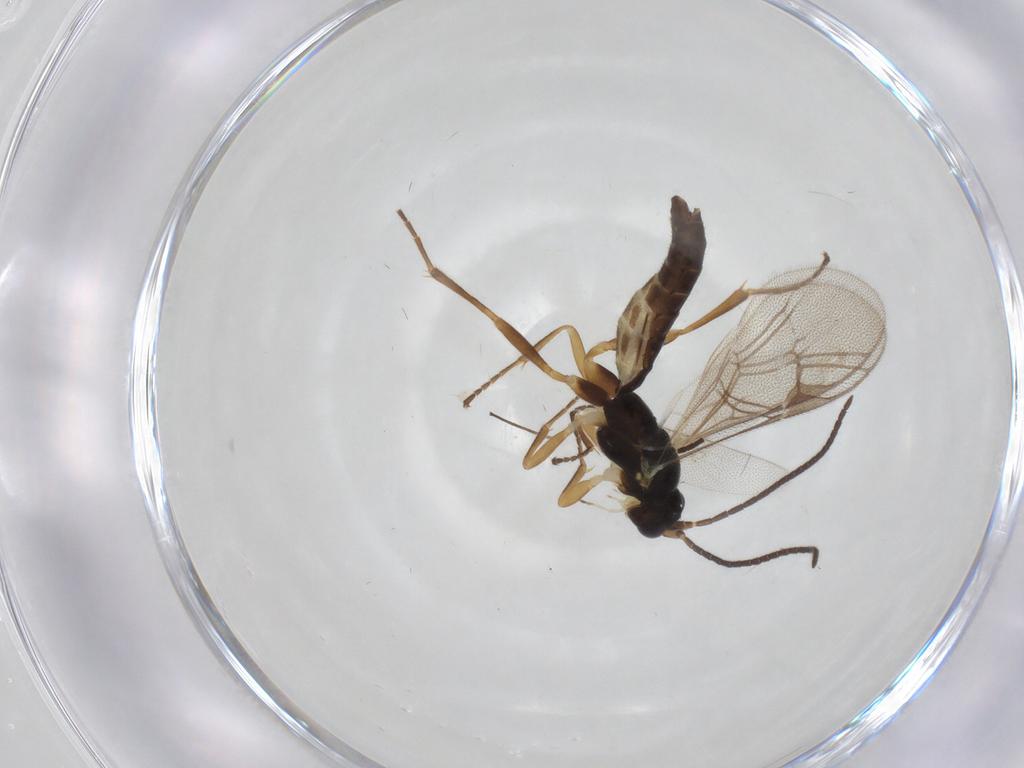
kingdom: Animalia
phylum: Arthropoda
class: Insecta
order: Hymenoptera
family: Ichneumonidae
